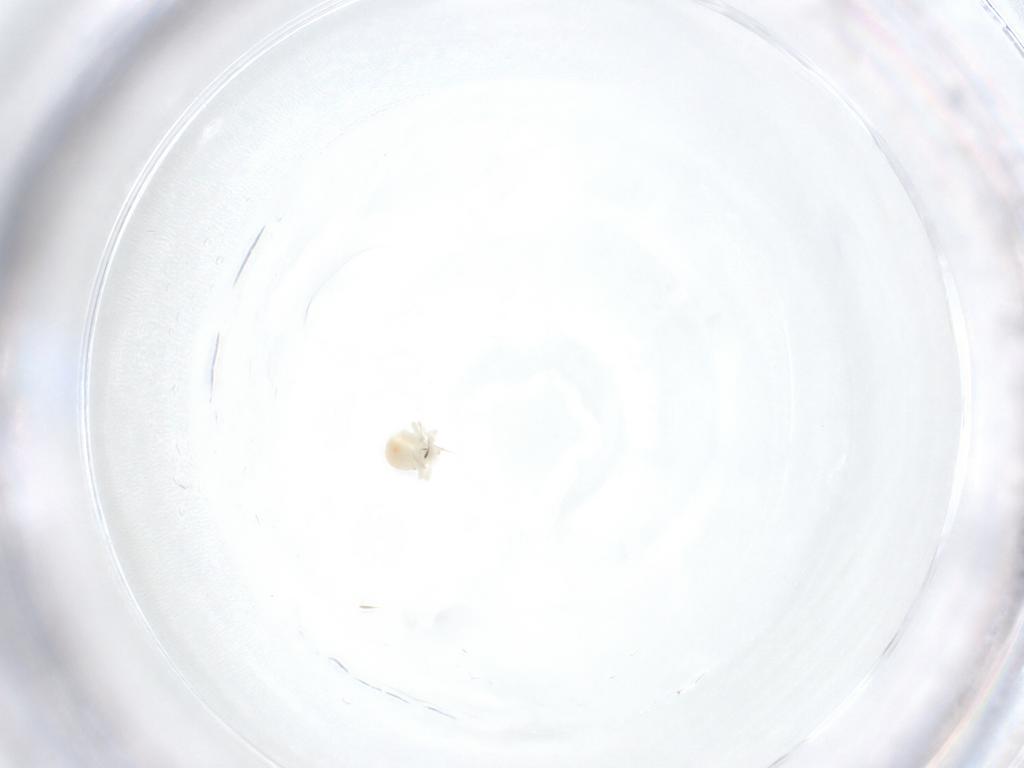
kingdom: Animalia
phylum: Arthropoda
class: Arachnida
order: Trombidiformes
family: Anystidae
